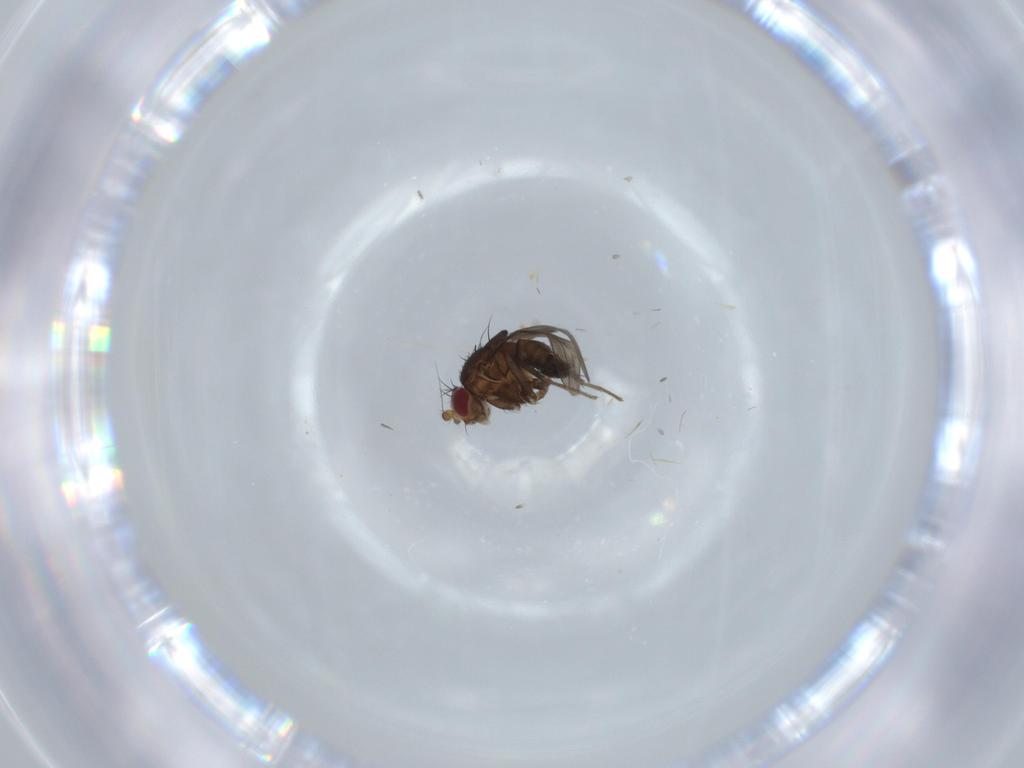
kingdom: Animalia
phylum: Arthropoda
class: Insecta
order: Diptera
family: Sphaeroceridae
